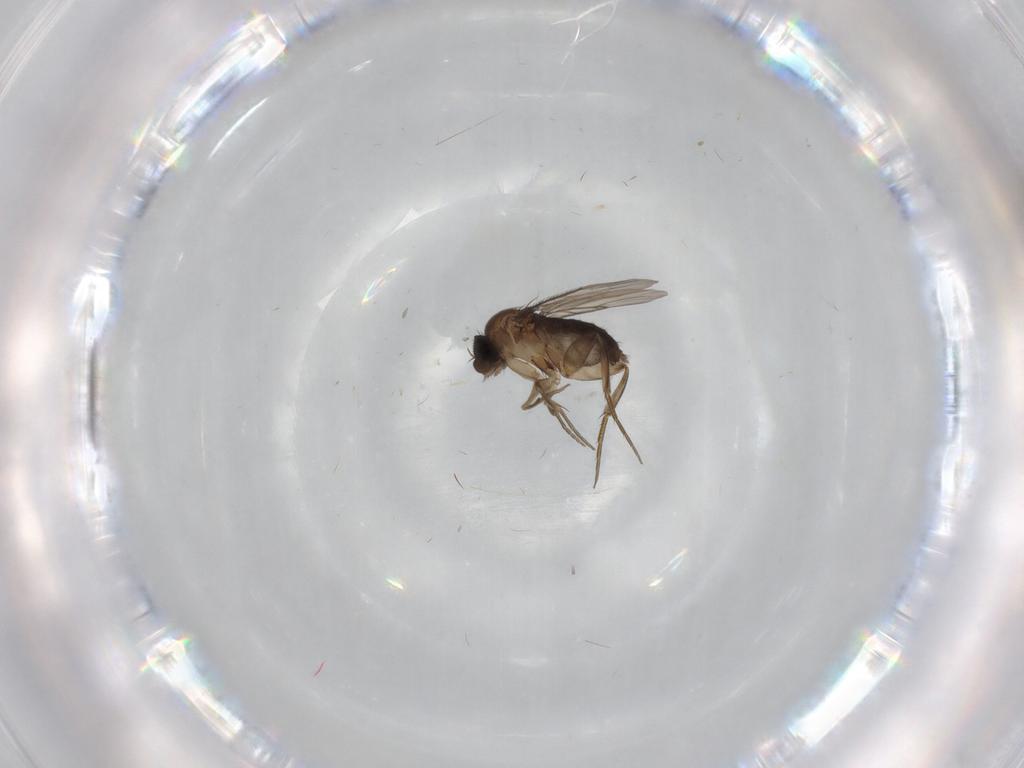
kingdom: Animalia
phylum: Arthropoda
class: Insecta
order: Diptera
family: Phoridae
